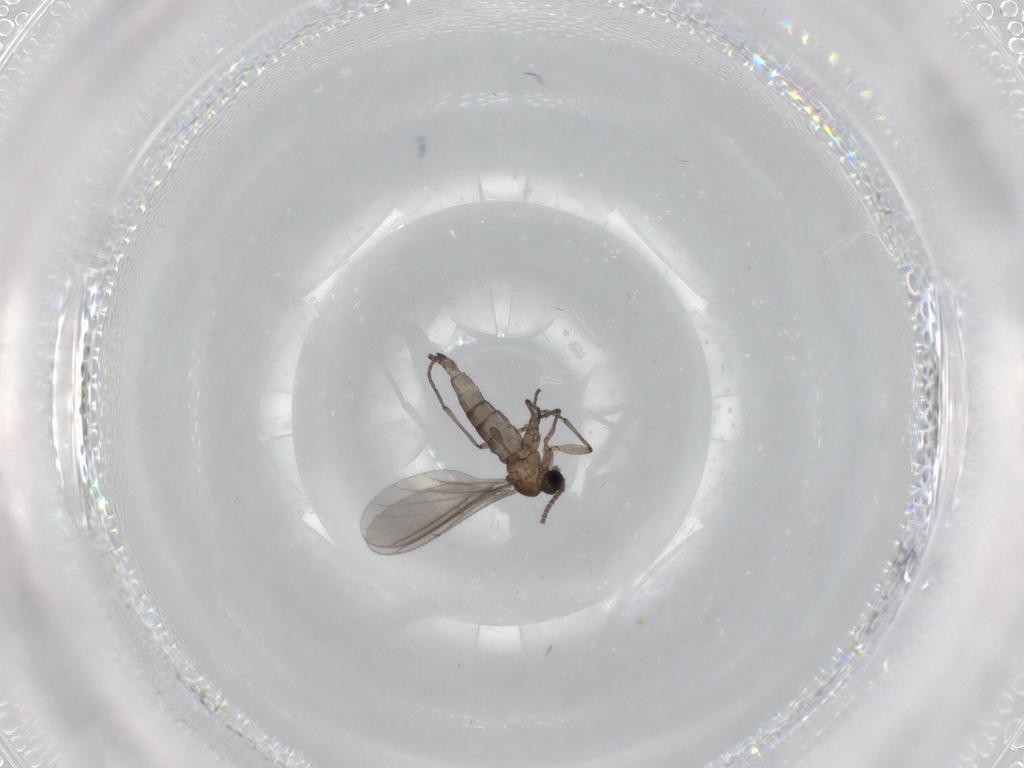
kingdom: Animalia
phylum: Arthropoda
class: Insecta
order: Diptera
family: Sciaridae
